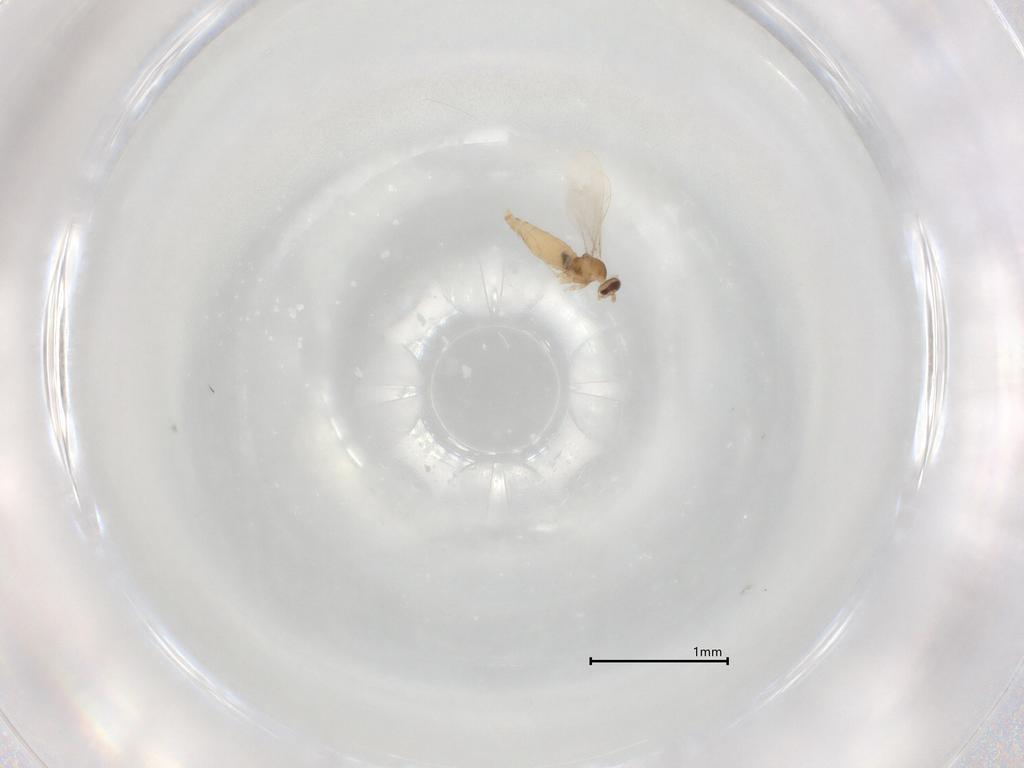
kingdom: Animalia
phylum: Arthropoda
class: Insecta
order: Diptera
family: Cecidomyiidae
